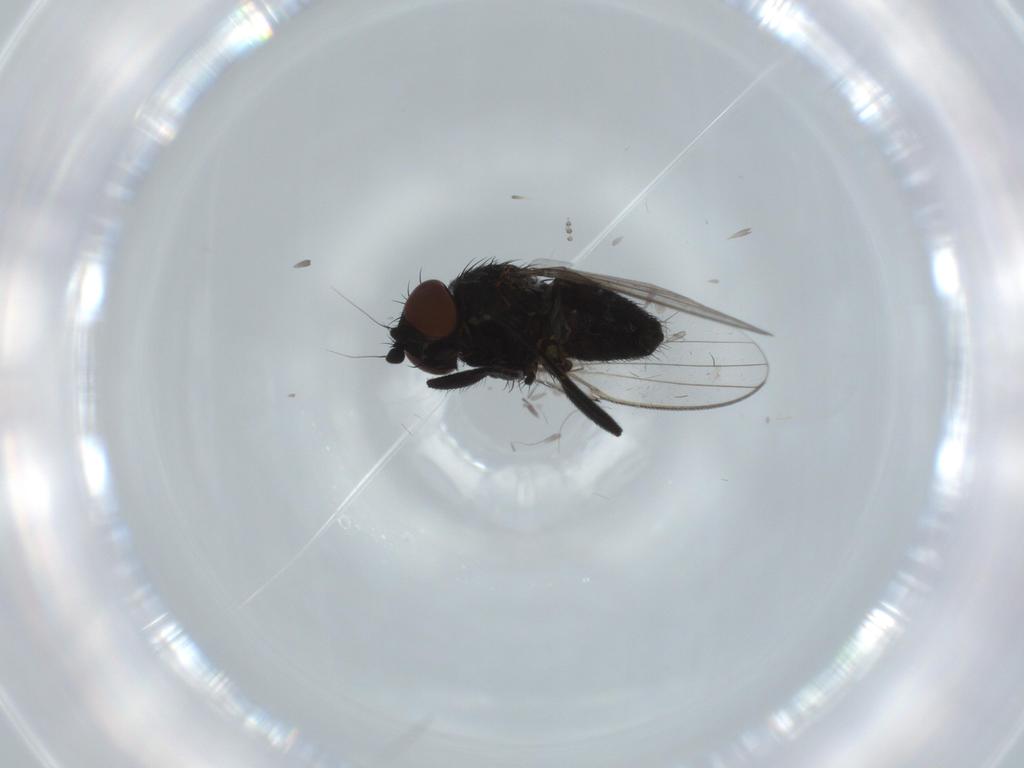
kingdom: Animalia
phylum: Arthropoda
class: Insecta
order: Diptera
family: Milichiidae
